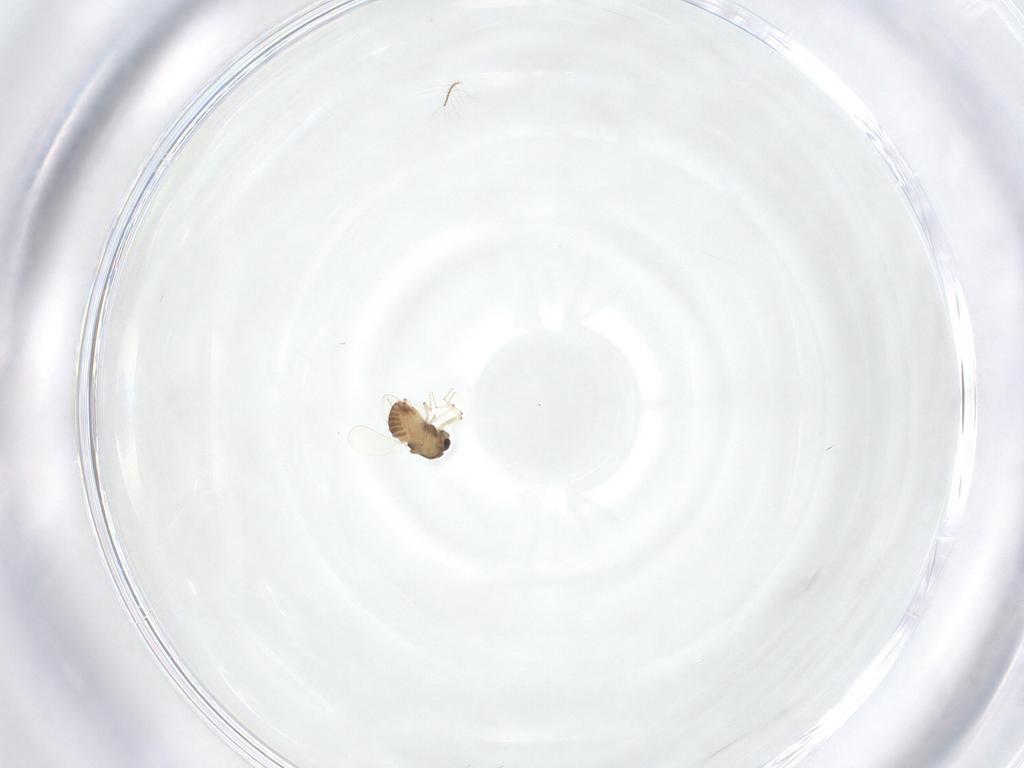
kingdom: Animalia
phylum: Arthropoda
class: Insecta
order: Diptera
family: Chironomidae
